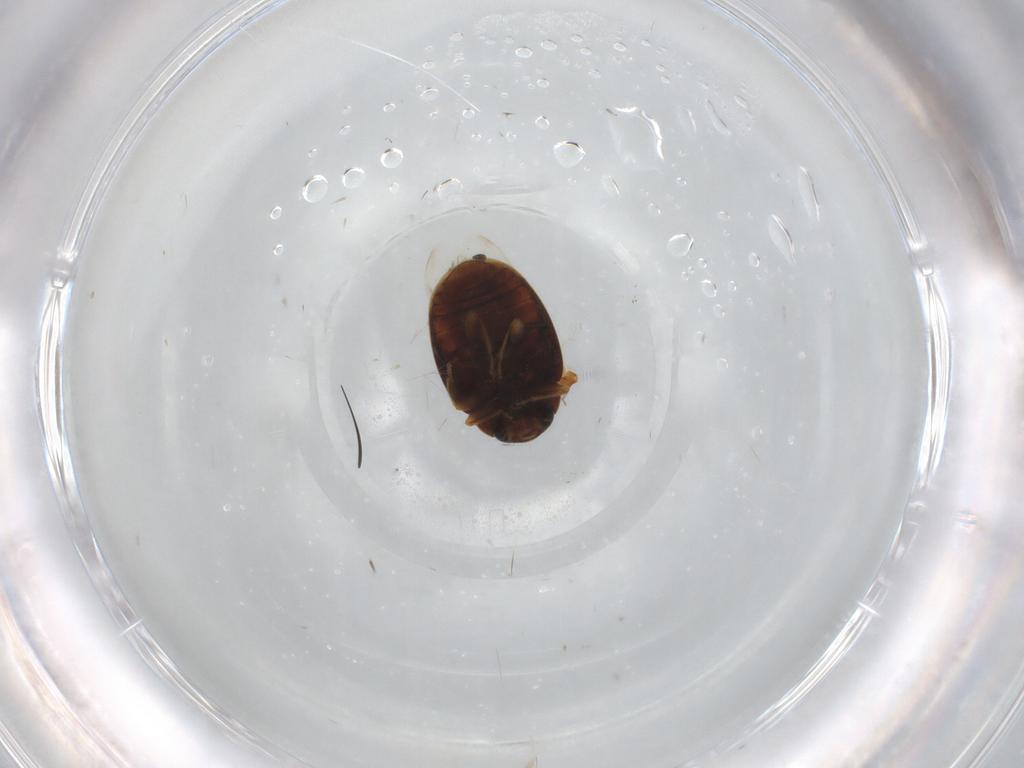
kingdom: Animalia
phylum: Arthropoda
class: Insecta
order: Coleoptera
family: Coccinellidae
